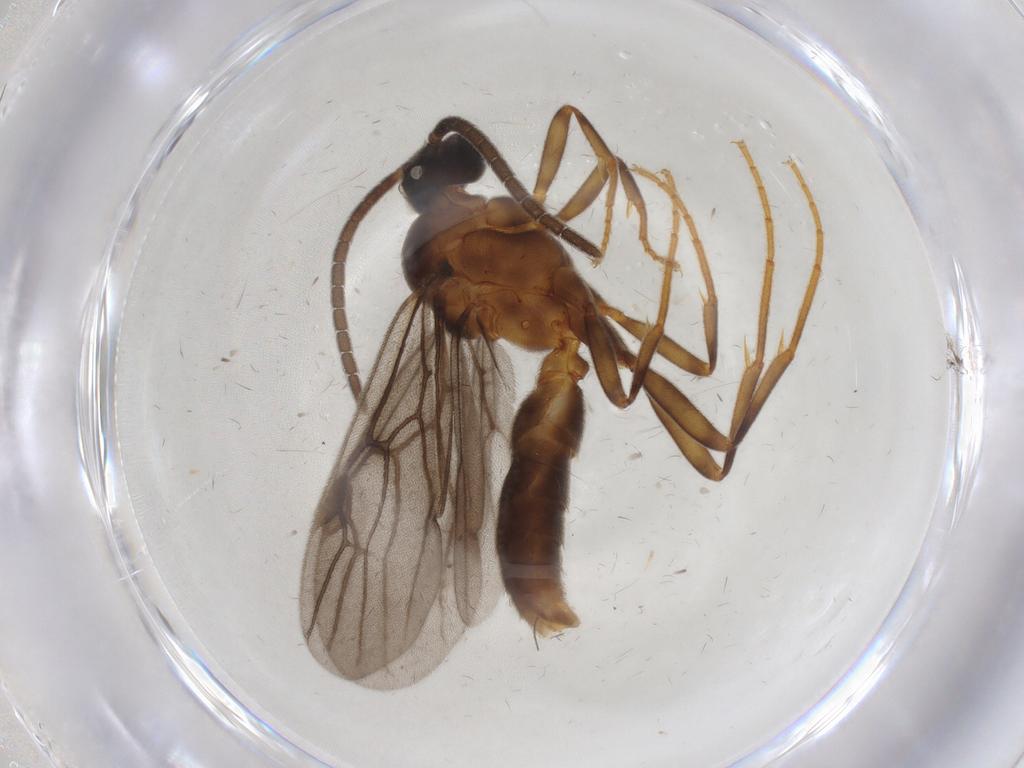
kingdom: Animalia
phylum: Arthropoda
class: Insecta
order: Hymenoptera
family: Formicidae
